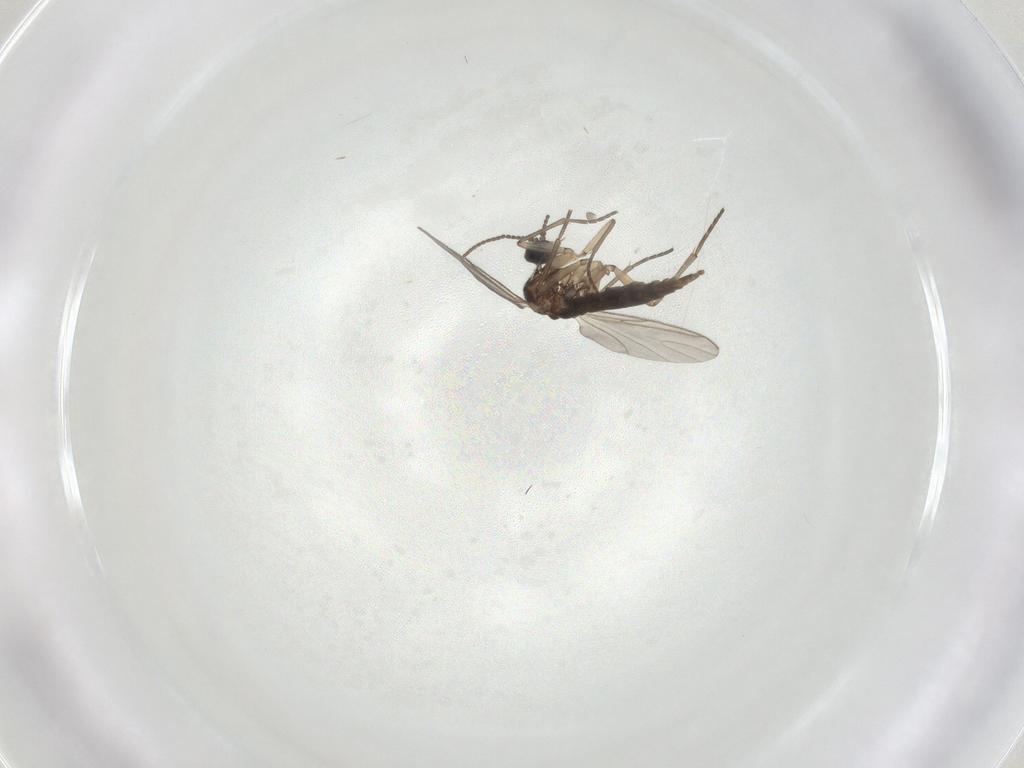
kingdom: Animalia
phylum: Arthropoda
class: Insecta
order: Diptera
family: Sciaridae
